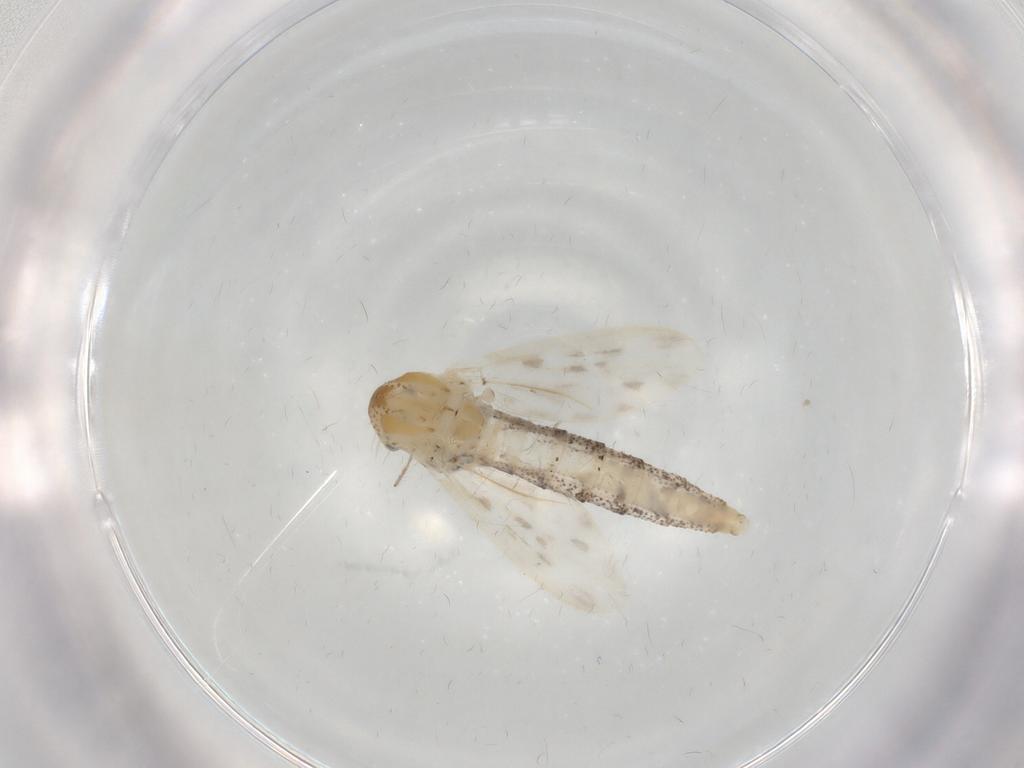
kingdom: Animalia
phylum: Arthropoda
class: Insecta
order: Diptera
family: Chaoboridae
